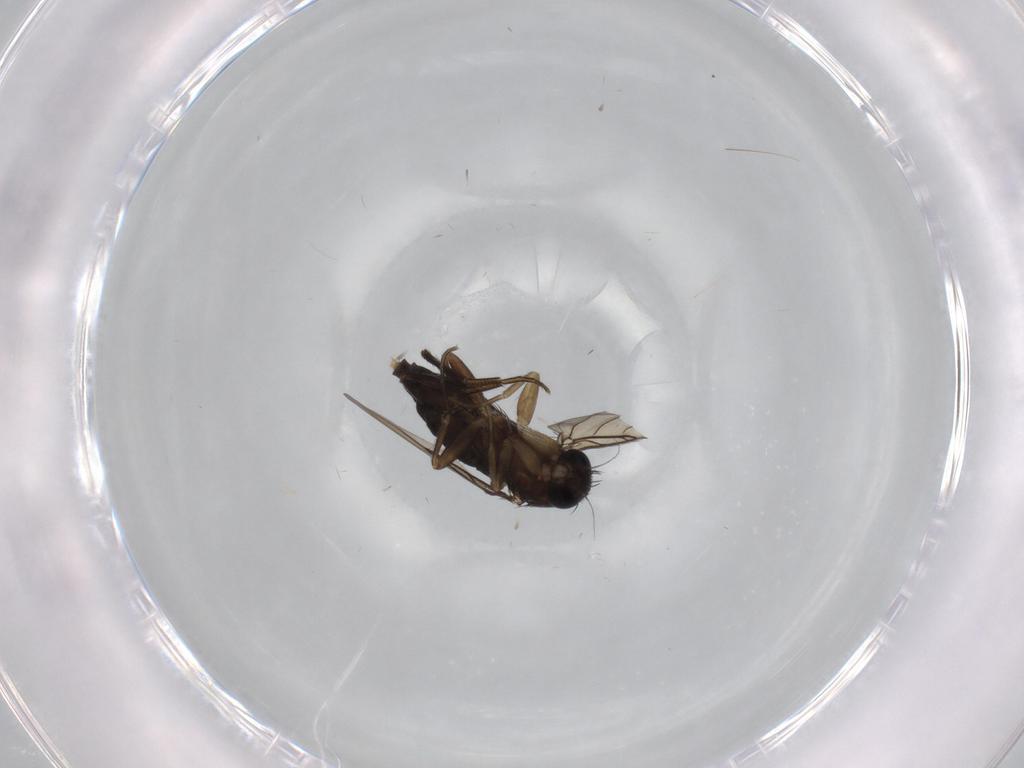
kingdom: Animalia
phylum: Arthropoda
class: Insecta
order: Diptera
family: Phoridae
